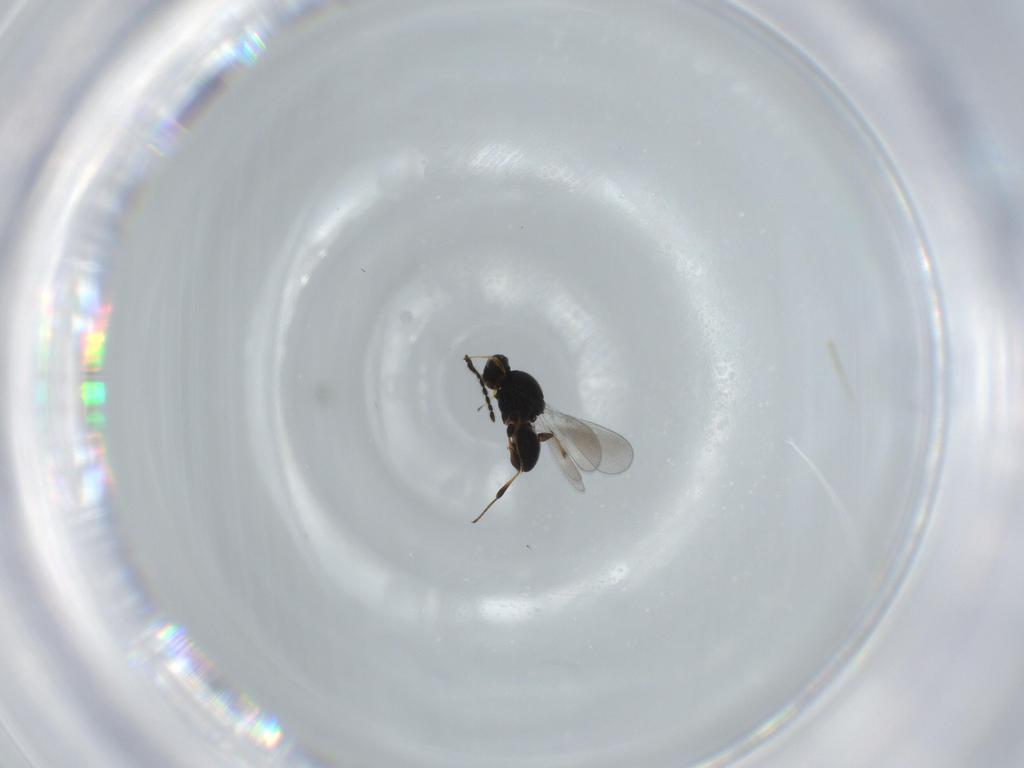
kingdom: Animalia
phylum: Arthropoda
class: Insecta
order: Hymenoptera
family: Platygastridae
